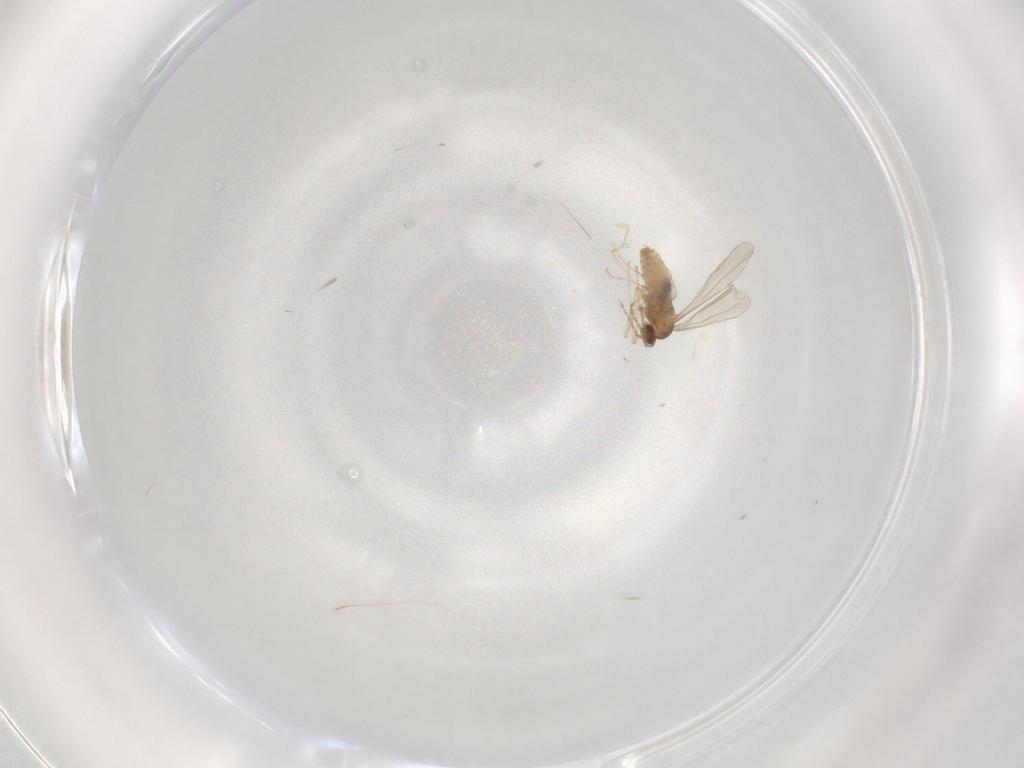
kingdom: Animalia
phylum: Arthropoda
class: Insecta
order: Diptera
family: Cecidomyiidae
